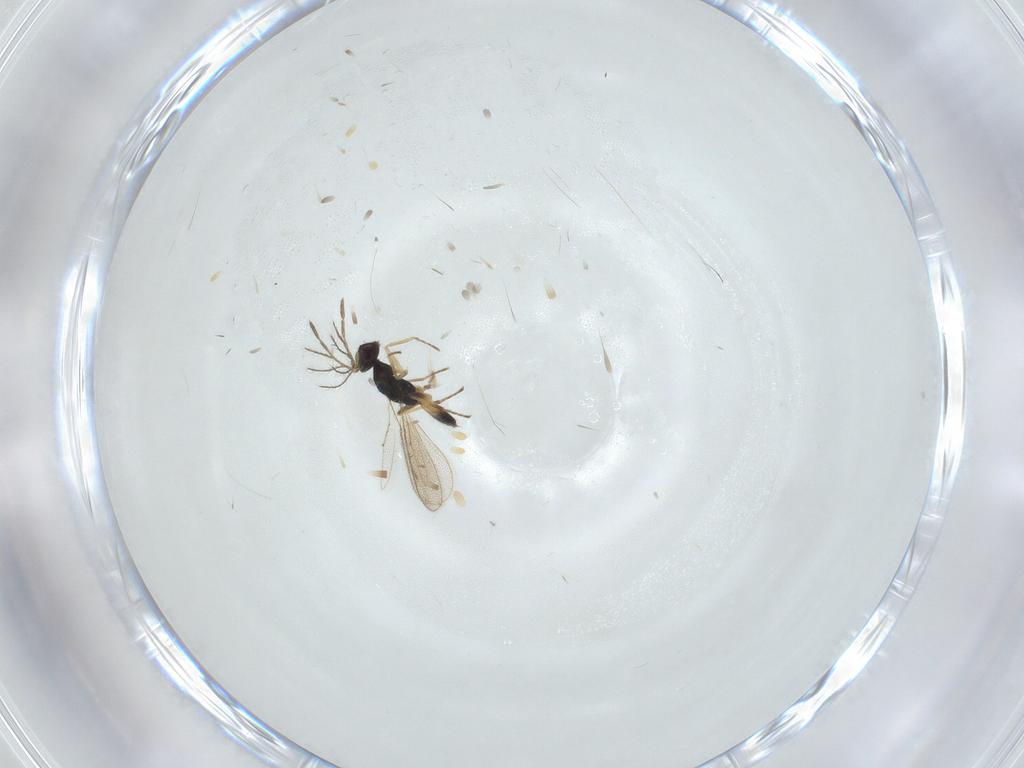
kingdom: Animalia
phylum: Arthropoda
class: Insecta
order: Hymenoptera
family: Eulophidae
